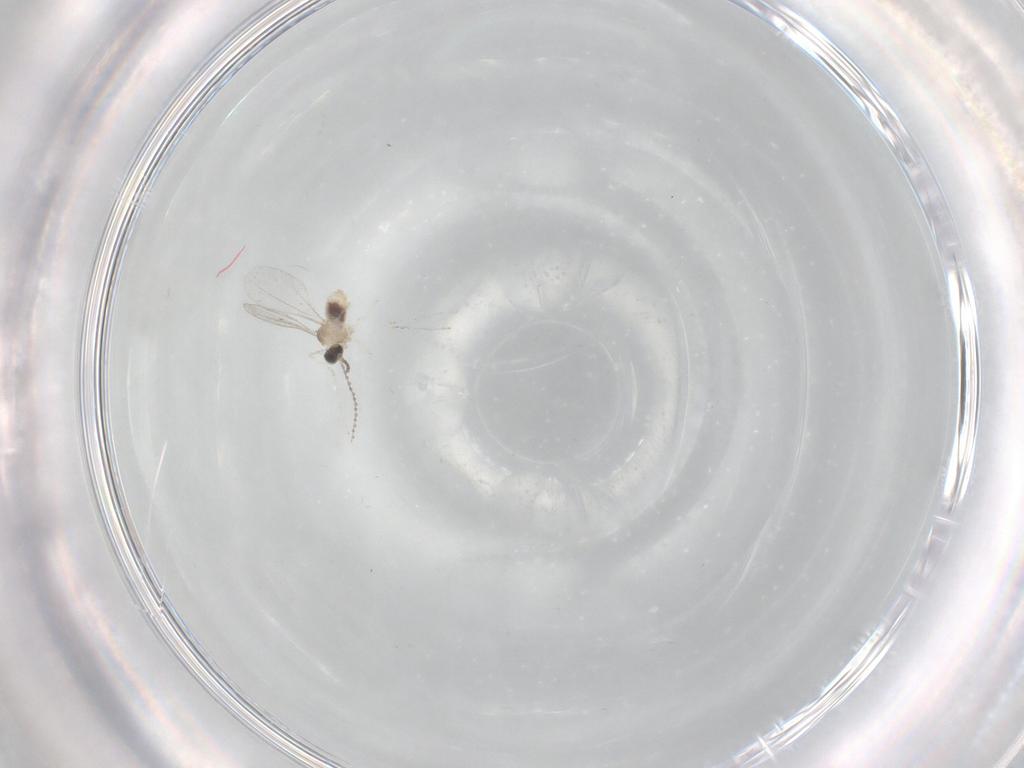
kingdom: Animalia
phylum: Arthropoda
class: Insecta
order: Diptera
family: Cecidomyiidae
